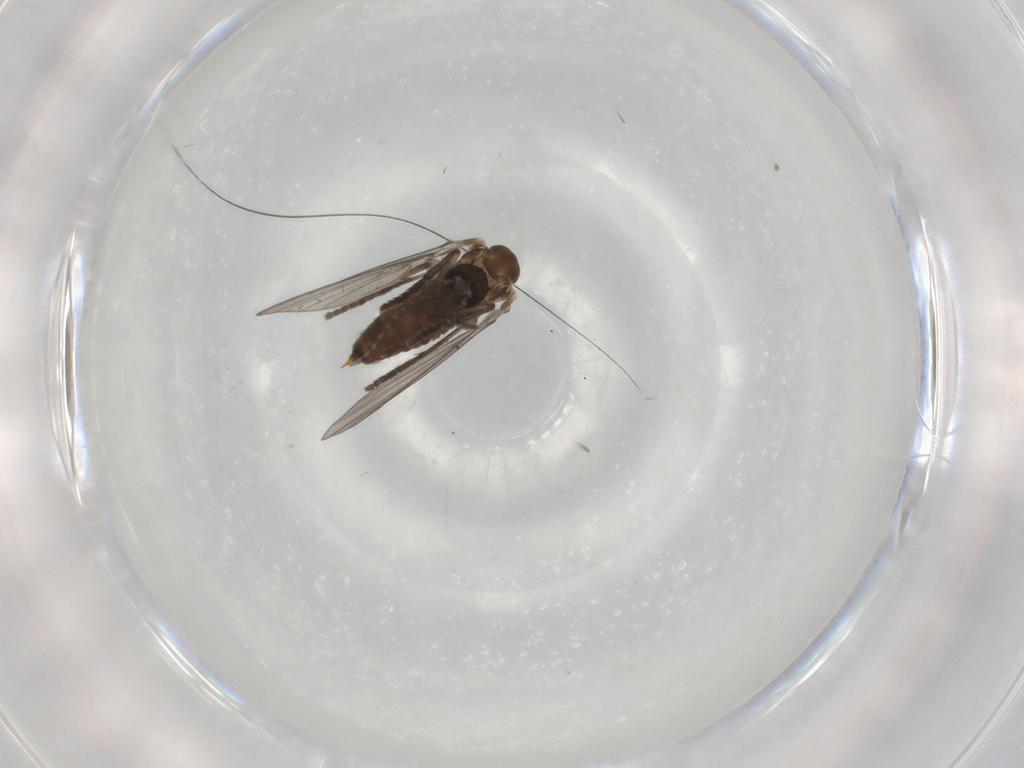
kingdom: Animalia
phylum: Arthropoda
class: Insecta
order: Diptera
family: Psychodidae
